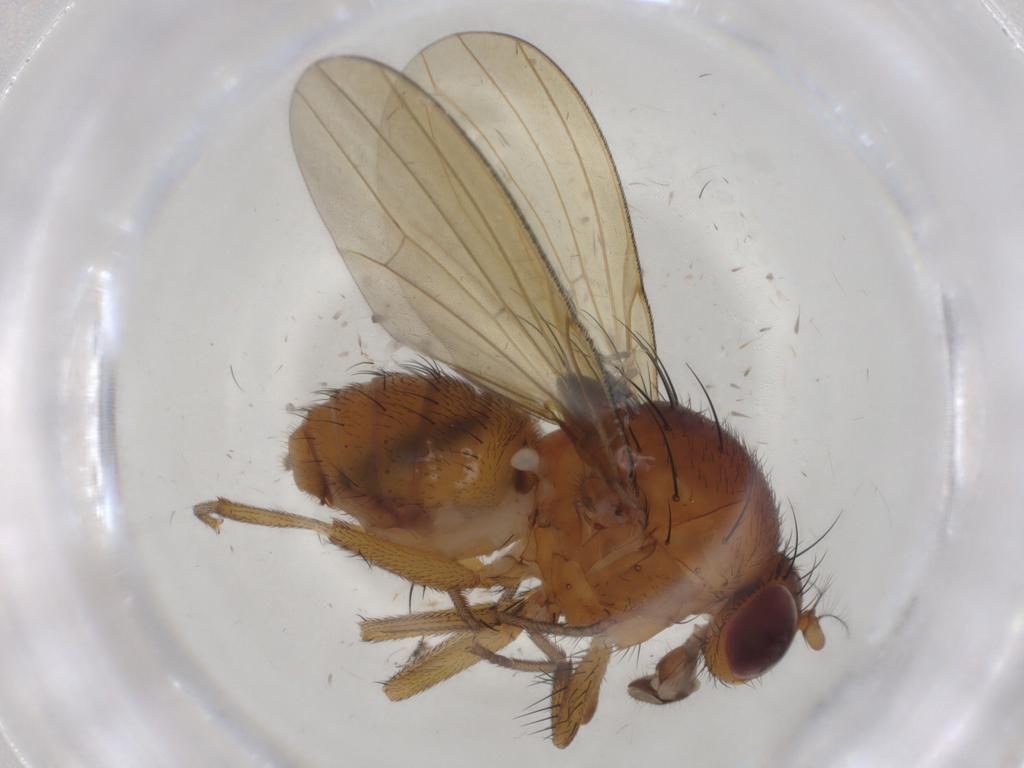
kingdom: Animalia
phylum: Arthropoda
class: Insecta
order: Diptera
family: Cecidomyiidae
